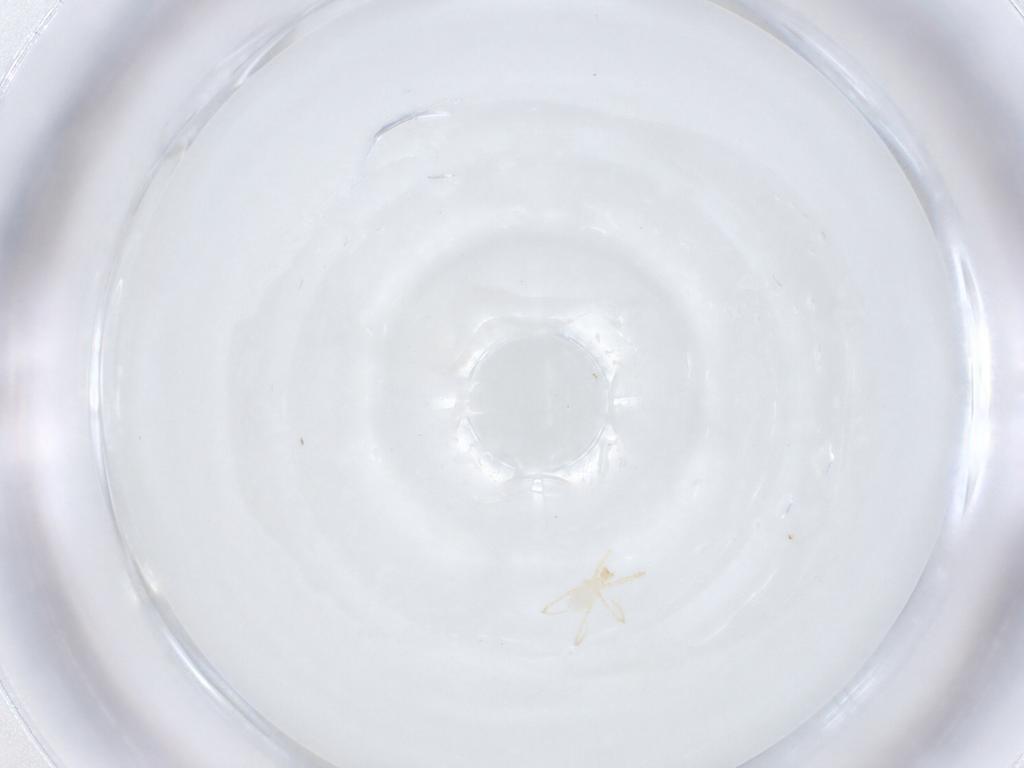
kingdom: Animalia
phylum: Arthropoda
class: Arachnida
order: Trombidiformes
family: Erythraeidae
